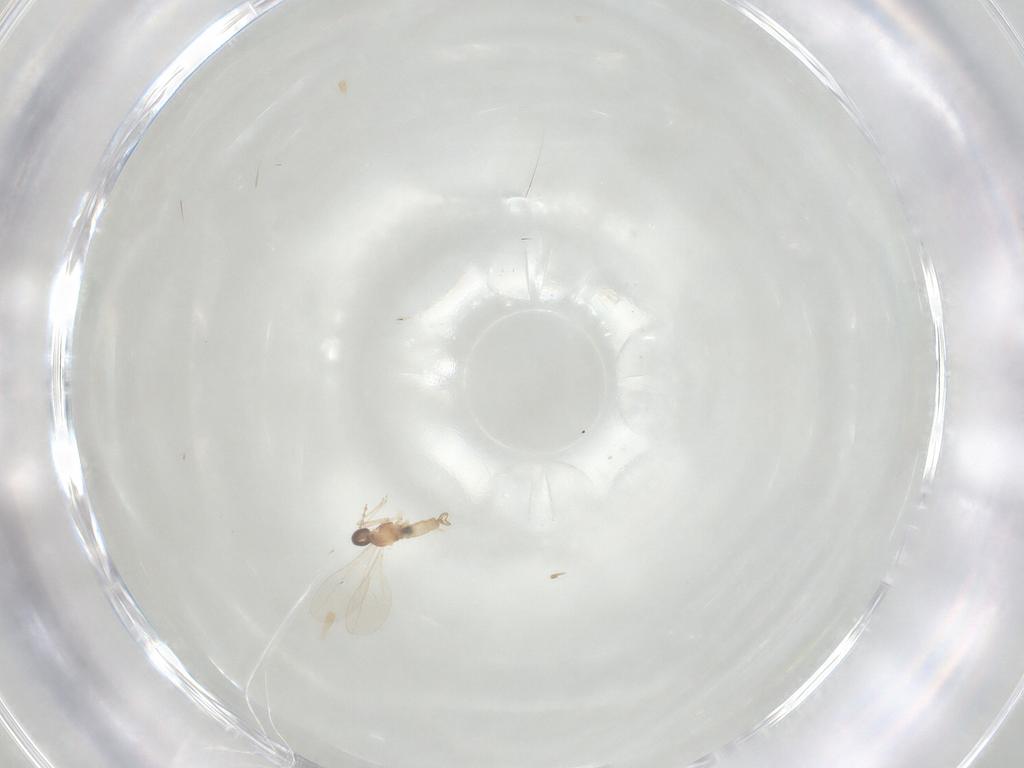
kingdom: Animalia
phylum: Arthropoda
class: Insecta
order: Diptera
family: Cecidomyiidae
